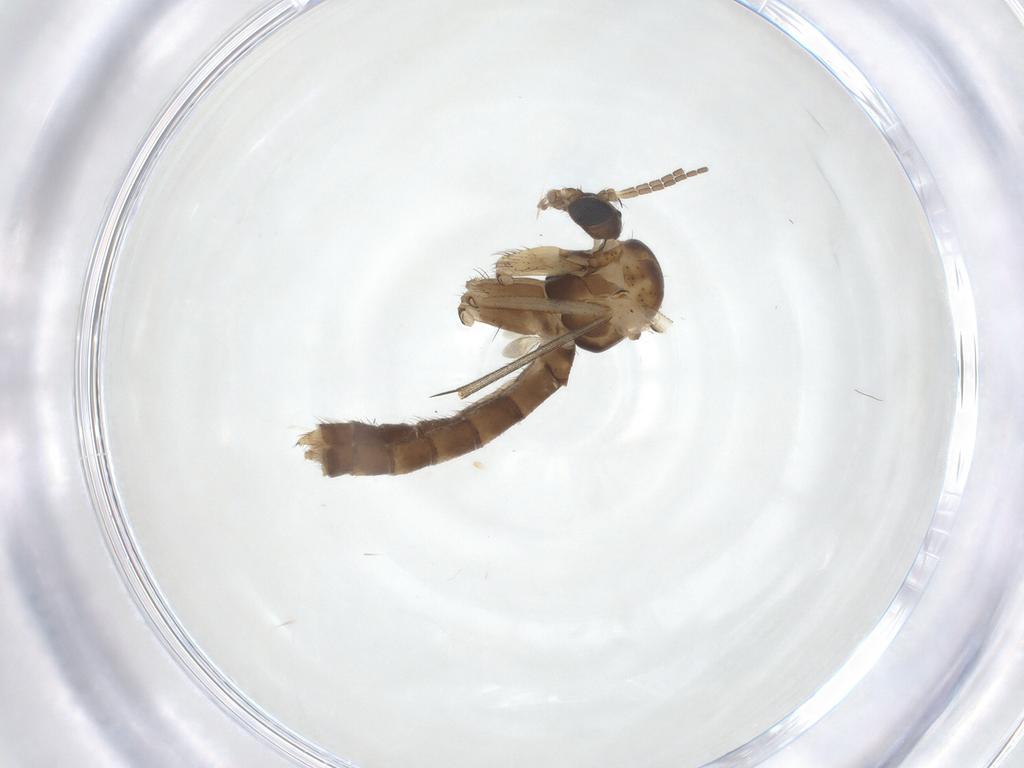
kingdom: Animalia
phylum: Arthropoda
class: Insecta
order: Diptera
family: Mycetophilidae
